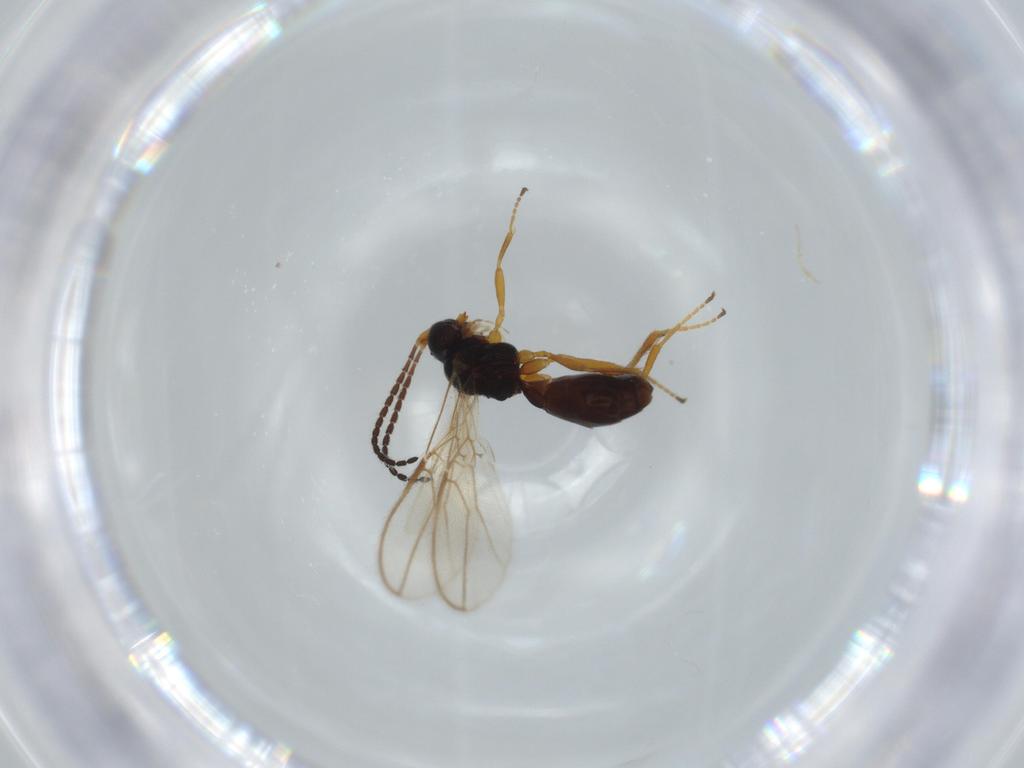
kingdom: Animalia
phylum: Arthropoda
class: Insecta
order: Hymenoptera
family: Braconidae
